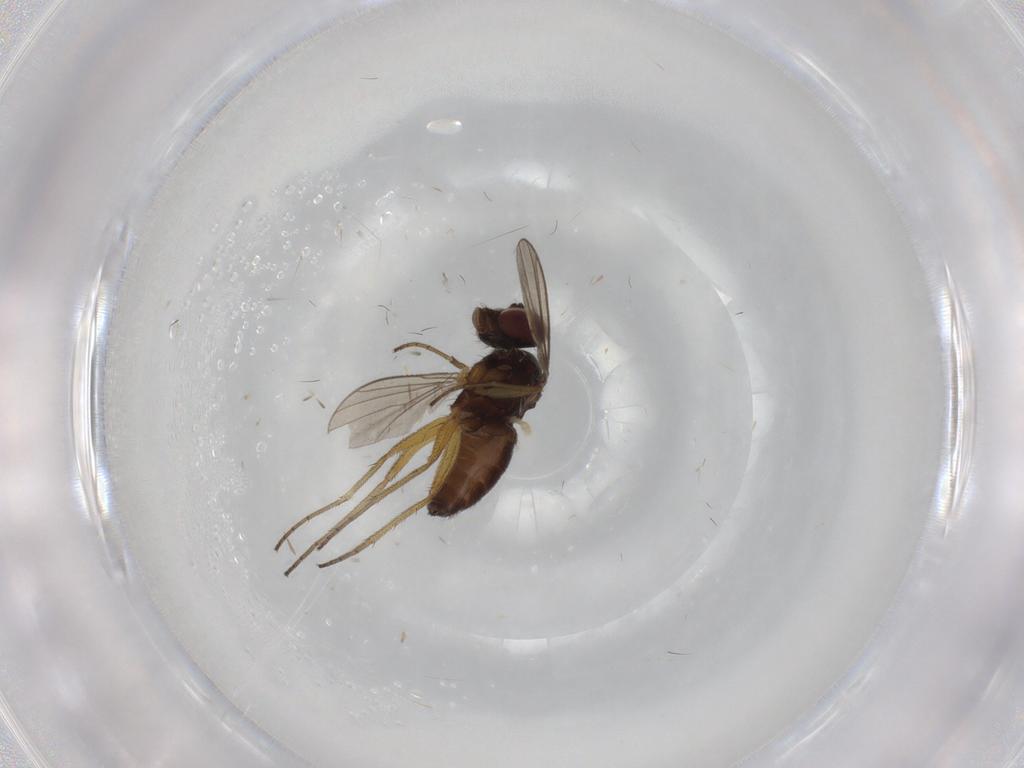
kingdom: Animalia
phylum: Arthropoda
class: Insecta
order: Diptera
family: Dolichopodidae
